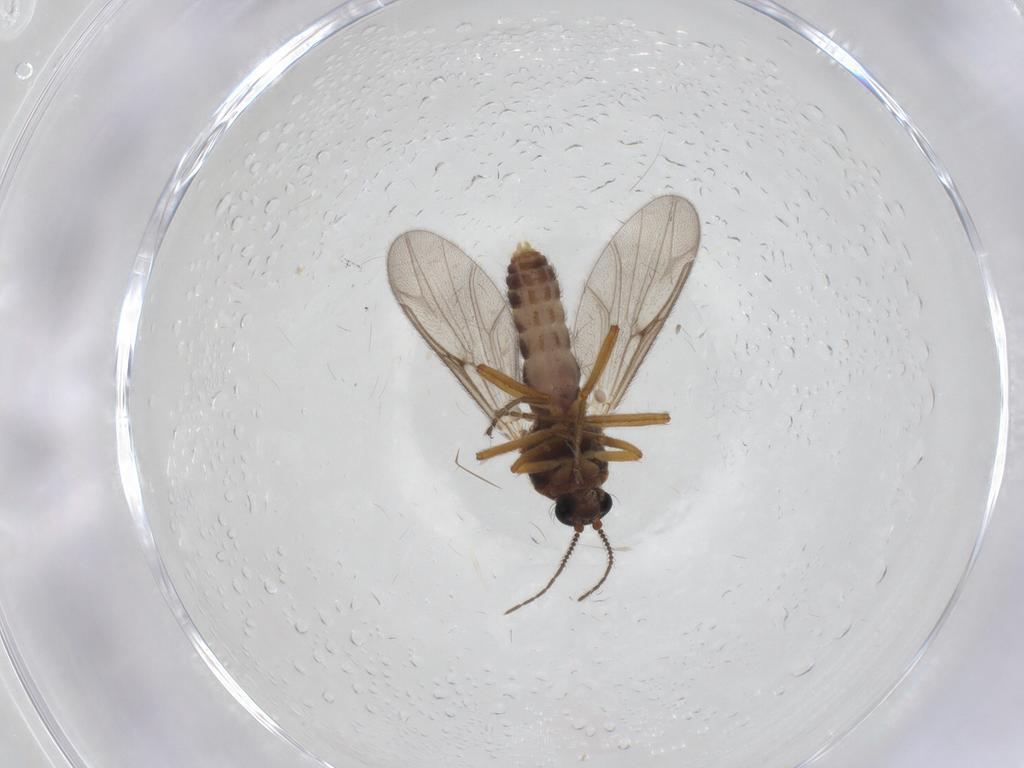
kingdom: Animalia
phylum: Arthropoda
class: Insecta
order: Diptera
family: Ceratopogonidae
